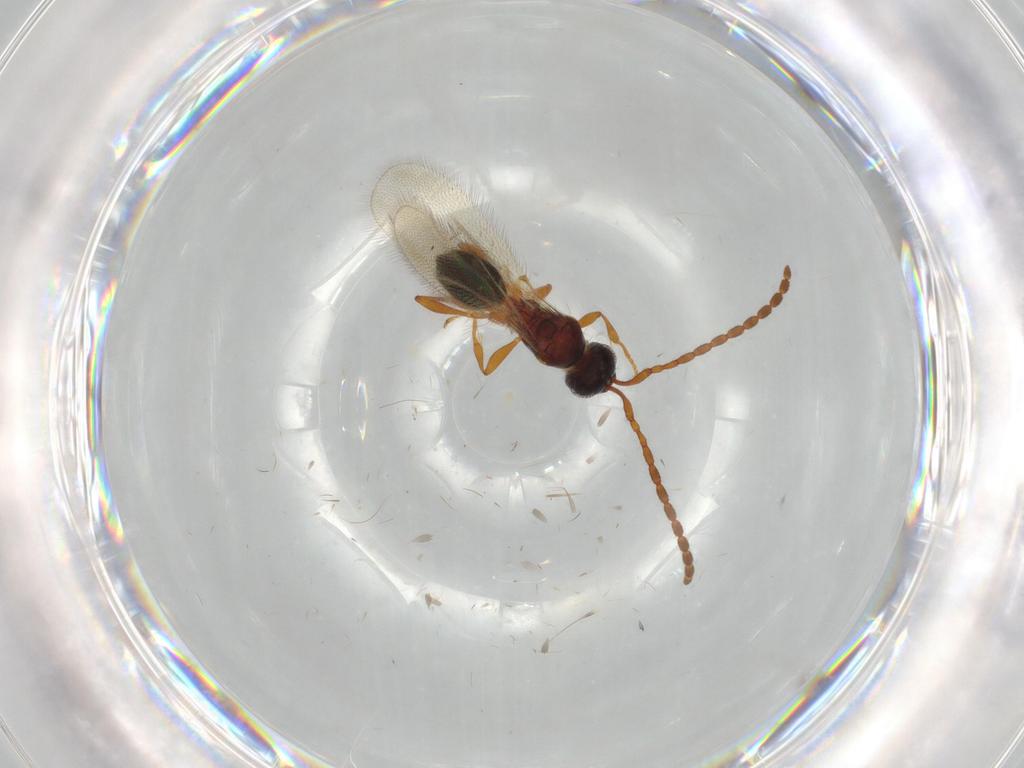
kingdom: Animalia
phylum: Arthropoda
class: Insecta
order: Hymenoptera
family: Diapriidae
